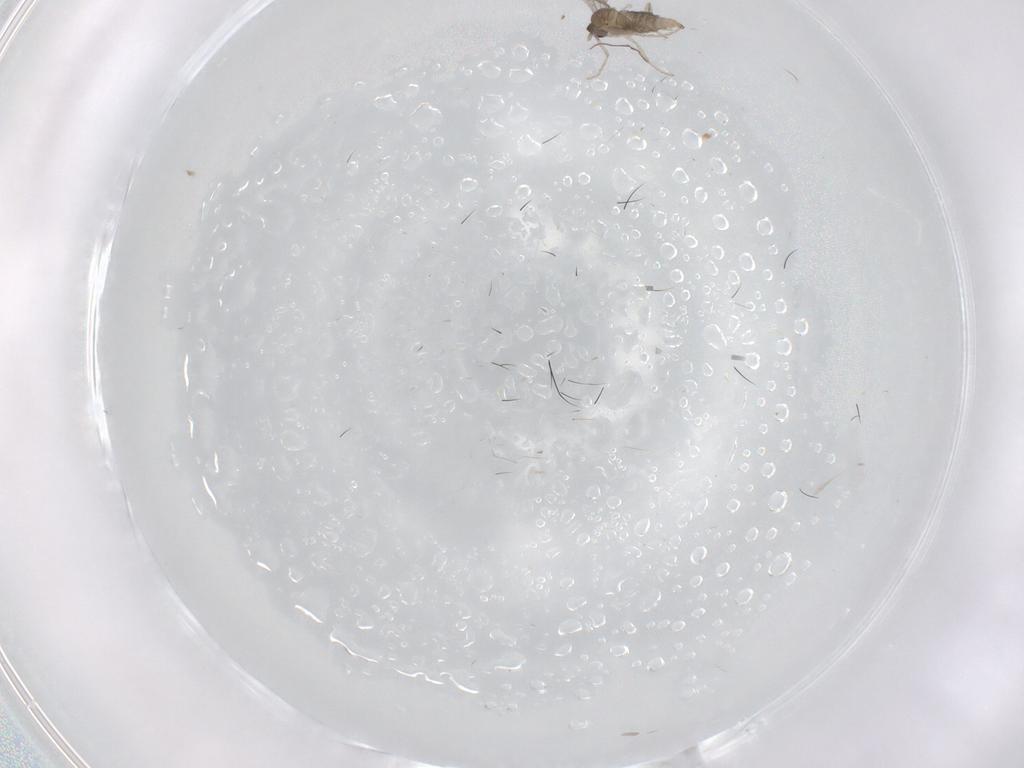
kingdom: Animalia
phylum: Arthropoda
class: Insecta
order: Diptera
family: Cecidomyiidae
